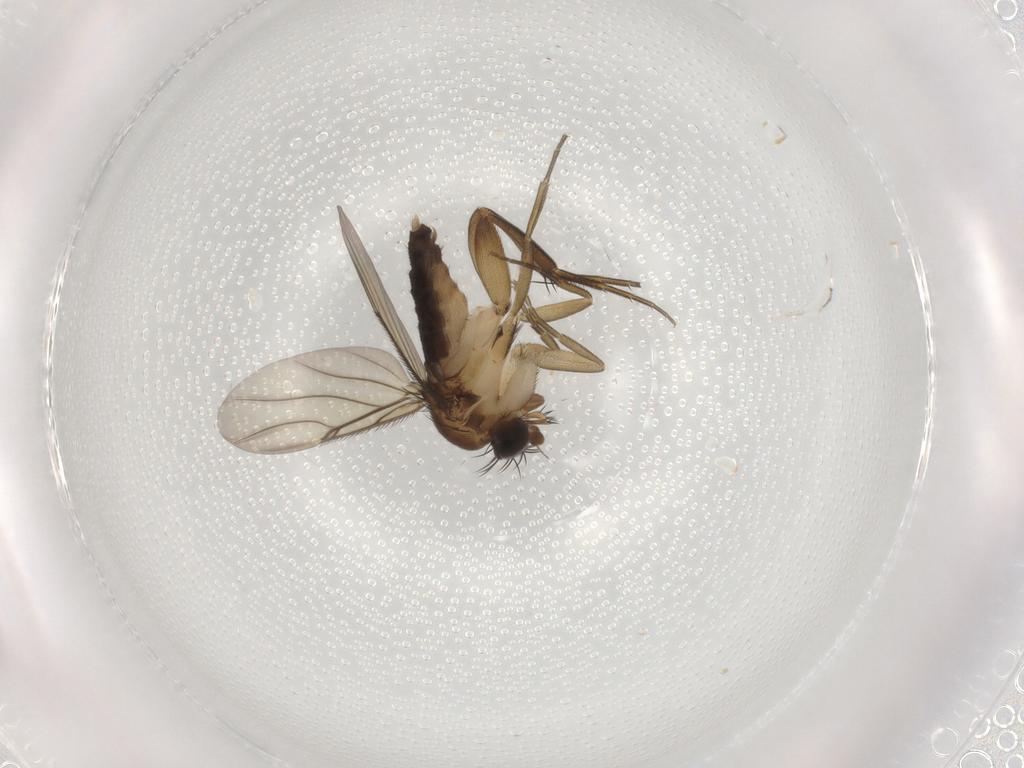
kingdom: Animalia
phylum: Arthropoda
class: Insecta
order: Diptera
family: Phoridae
